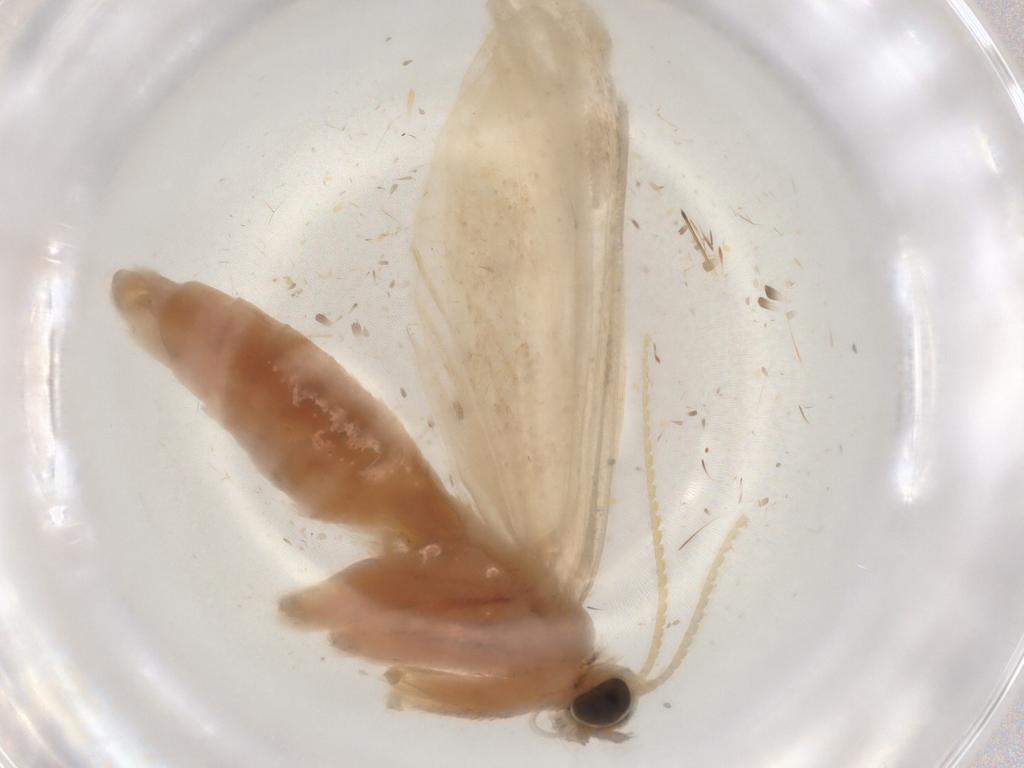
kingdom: Animalia
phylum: Arthropoda
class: Insecta
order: Lepidoptera
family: Crambidae
